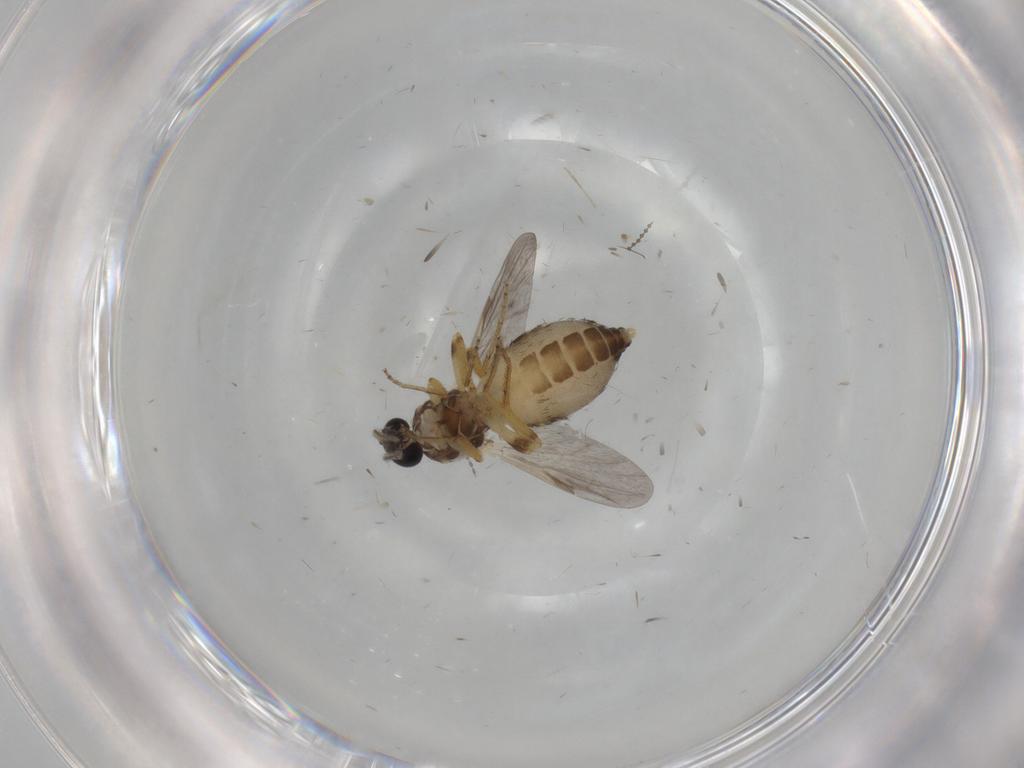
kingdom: Animalia
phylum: Arthropoda
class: Insecta
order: Diptera
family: Ceratopogonidae
